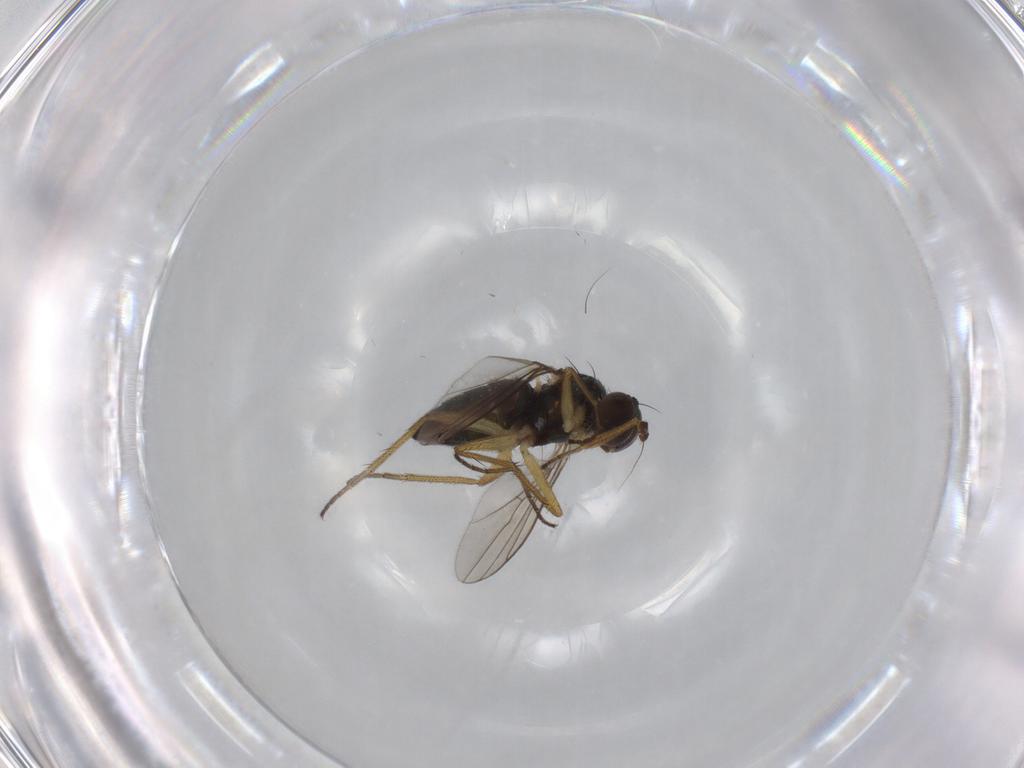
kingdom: Animalia
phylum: Arthropoda
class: Insecta
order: Diptera
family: Dolichopodidae
